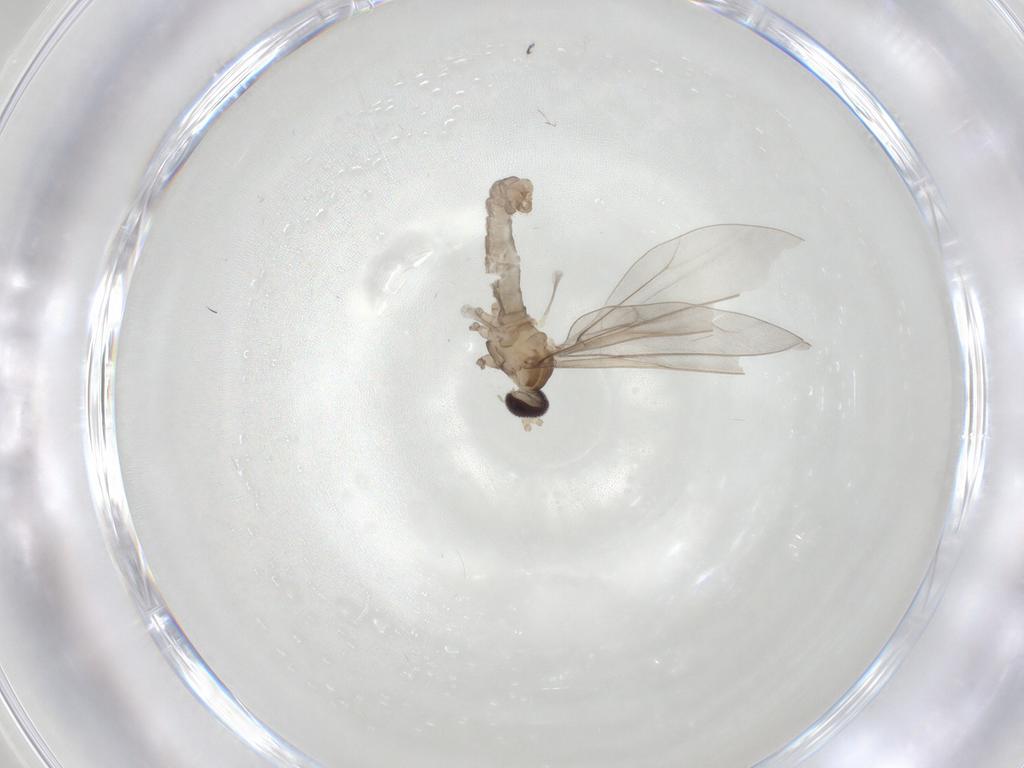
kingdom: Animalia
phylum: Arthropoda
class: Insecta
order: Diptera
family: Cecidomyiidae
